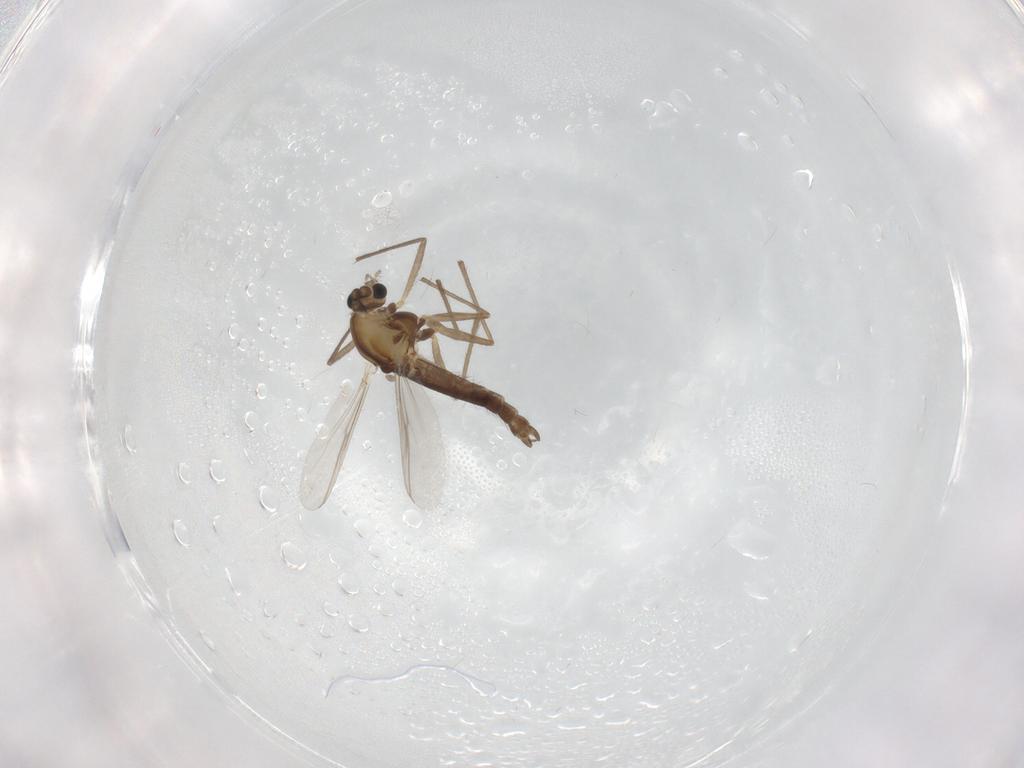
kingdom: Animalia
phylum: Arthropoda
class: Insecta
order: Diptera
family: Chironomidae
